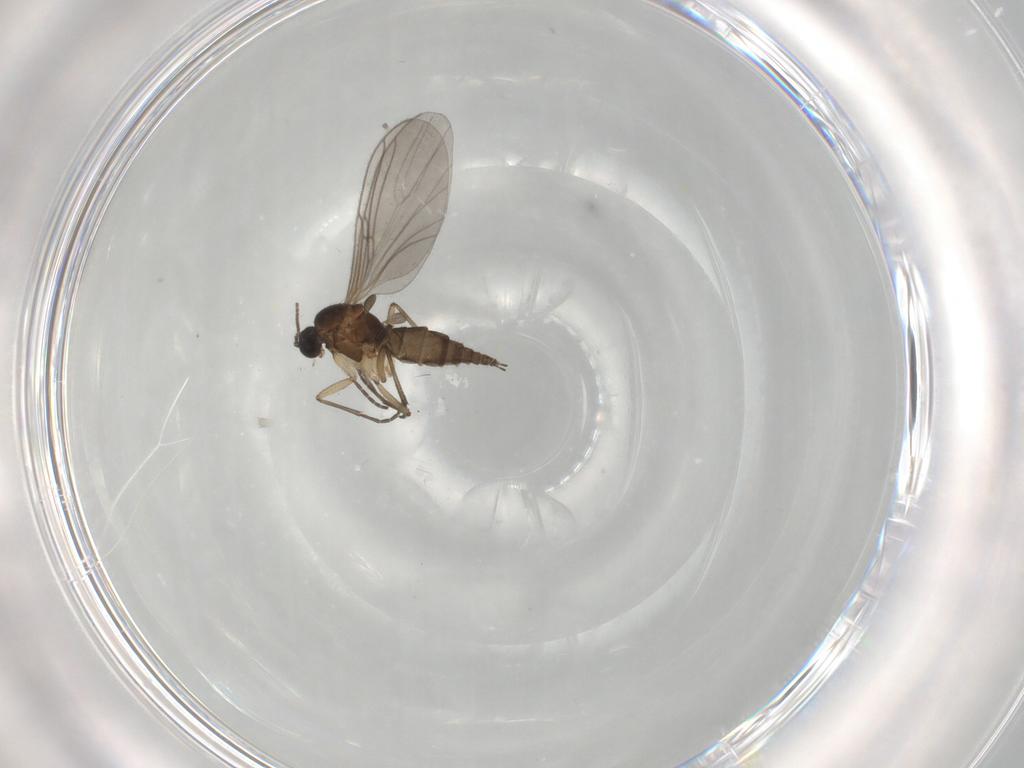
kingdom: Animalia
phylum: Arthropoda
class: Insecta
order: Diptera
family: Sciaridae
